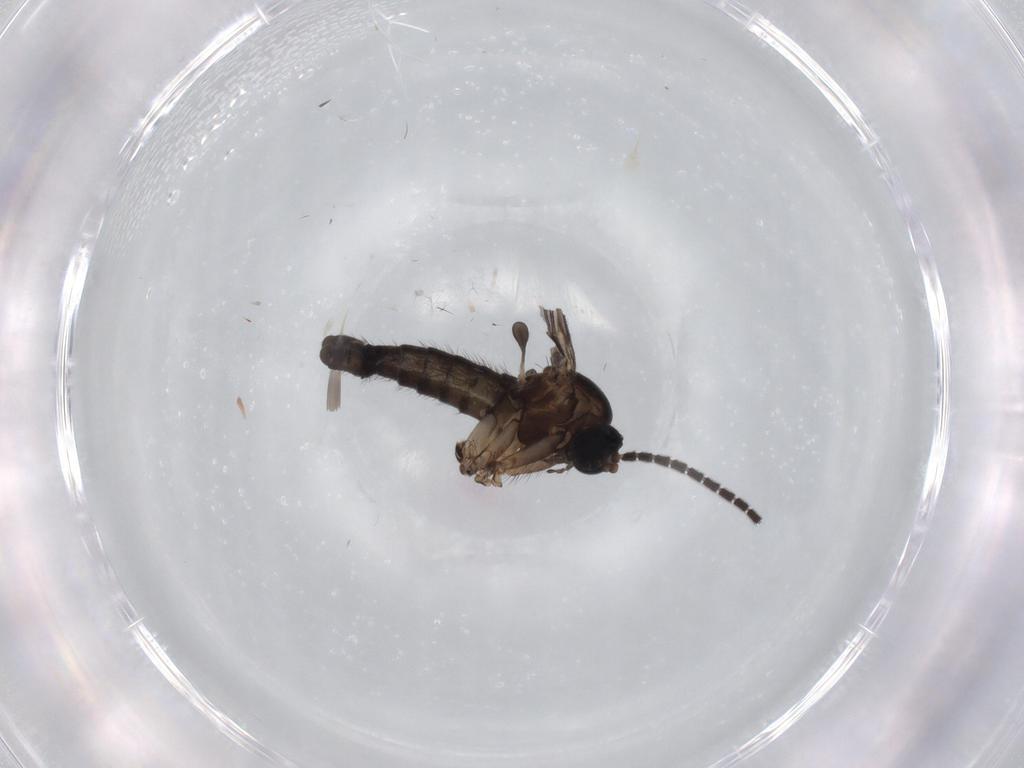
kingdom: Animalia
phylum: Arthropoda
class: Insecta
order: Diptera
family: Sciaridae
